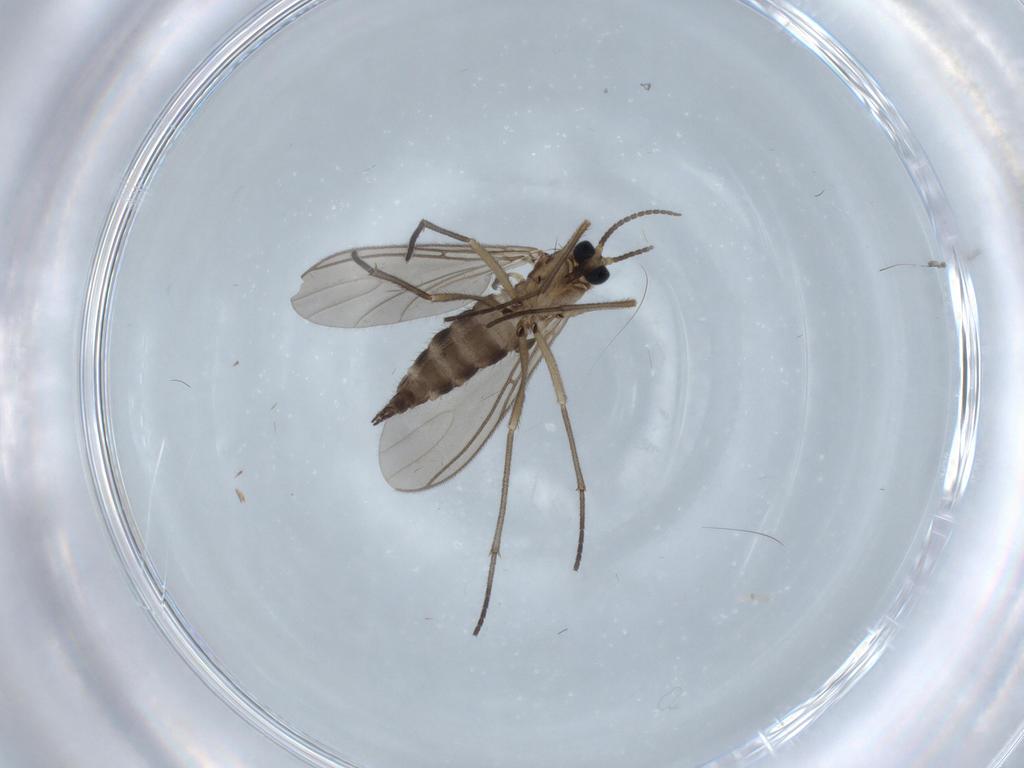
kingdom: Animalia
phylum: Arthropoda
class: Insecta
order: Diptera
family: Sciaridae
